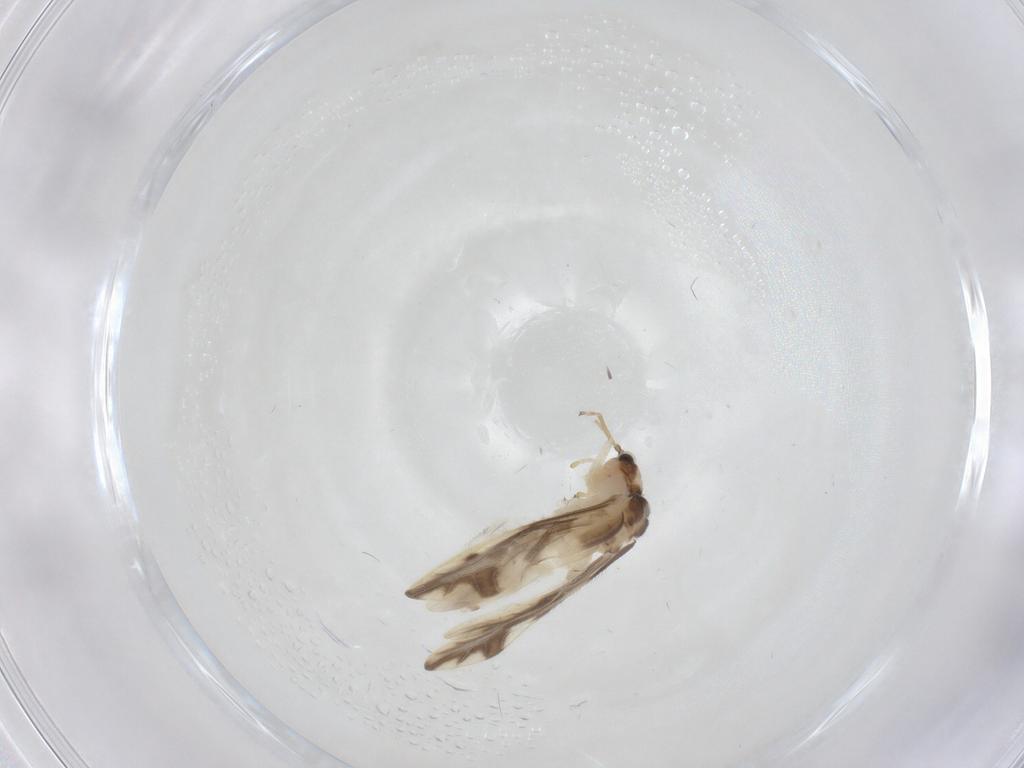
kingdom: Animalia
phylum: Arthropoda
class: Insecta
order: Psocodea
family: Caeciliusidae
